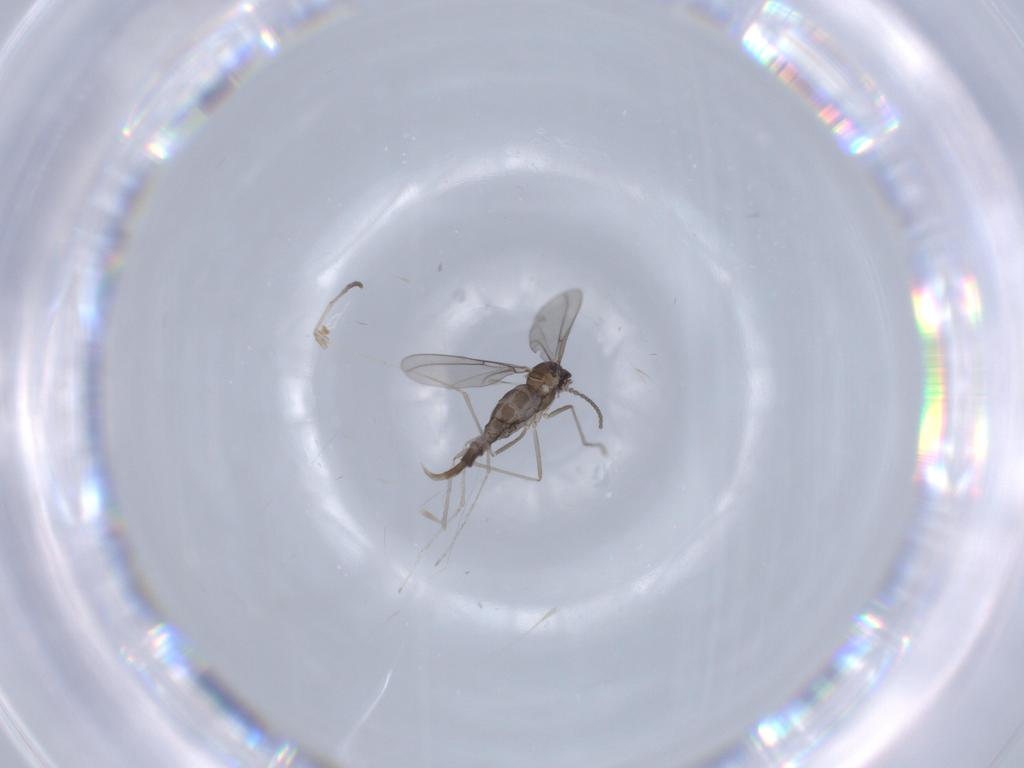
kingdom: Animalia
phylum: Arthropoda
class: Insecta
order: Diptera
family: Cecidomyiidae
